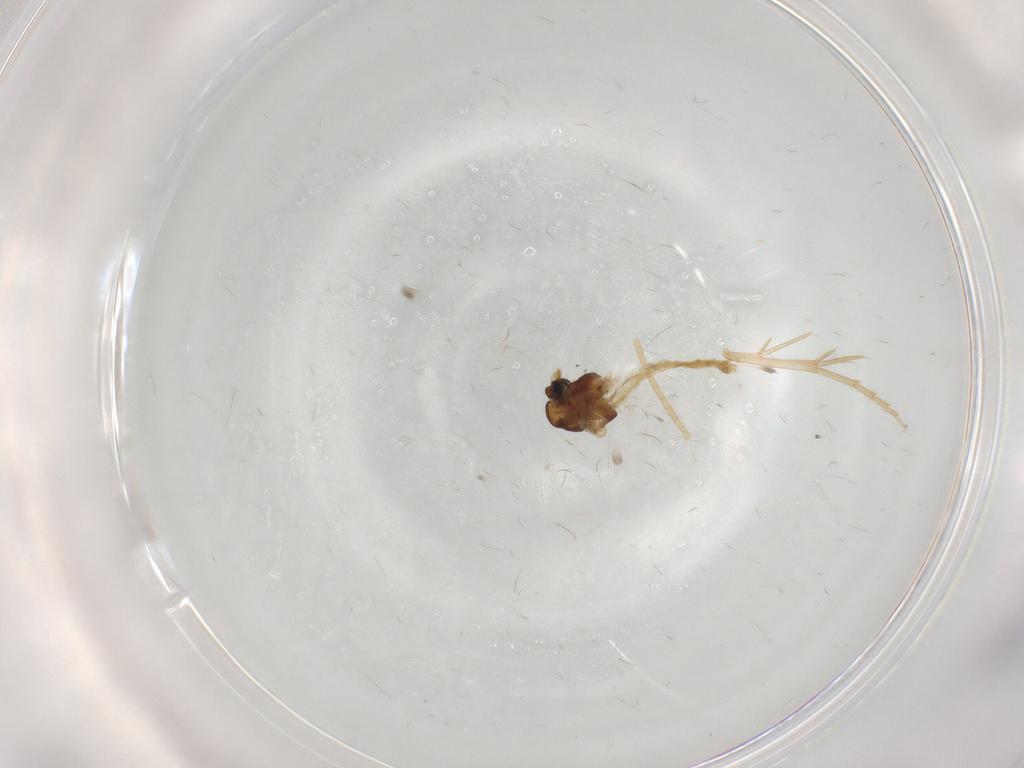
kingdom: Animalia
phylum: Arthropoda
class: Insecta
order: Diptera
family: Chironomidae
